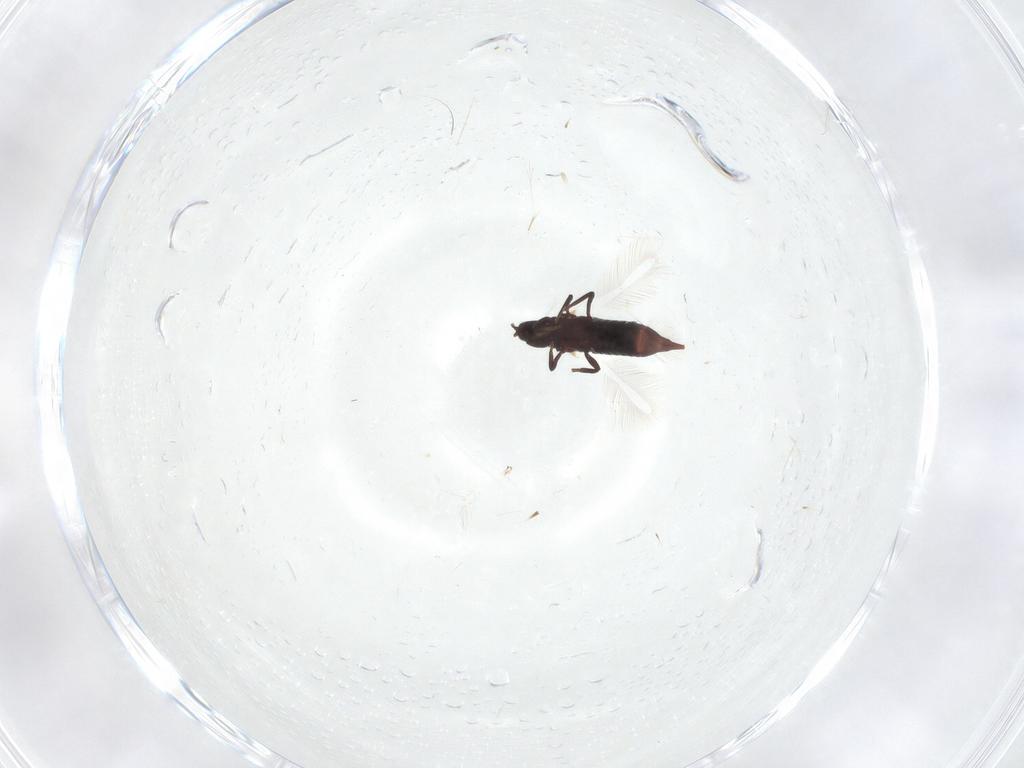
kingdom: Animalia
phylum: Arthropoda
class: Insecta
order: Thysanoptera
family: Phlaeothripidae
